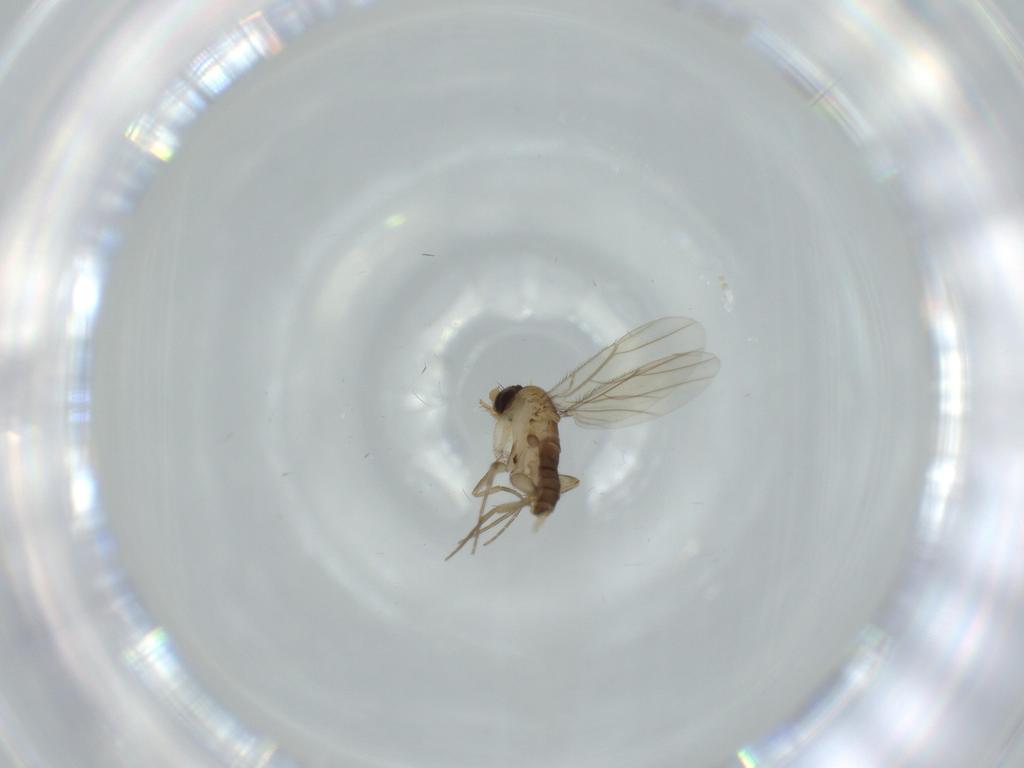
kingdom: Animalia
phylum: Arthropoda
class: Insecta
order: Diptera
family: Phoridae
